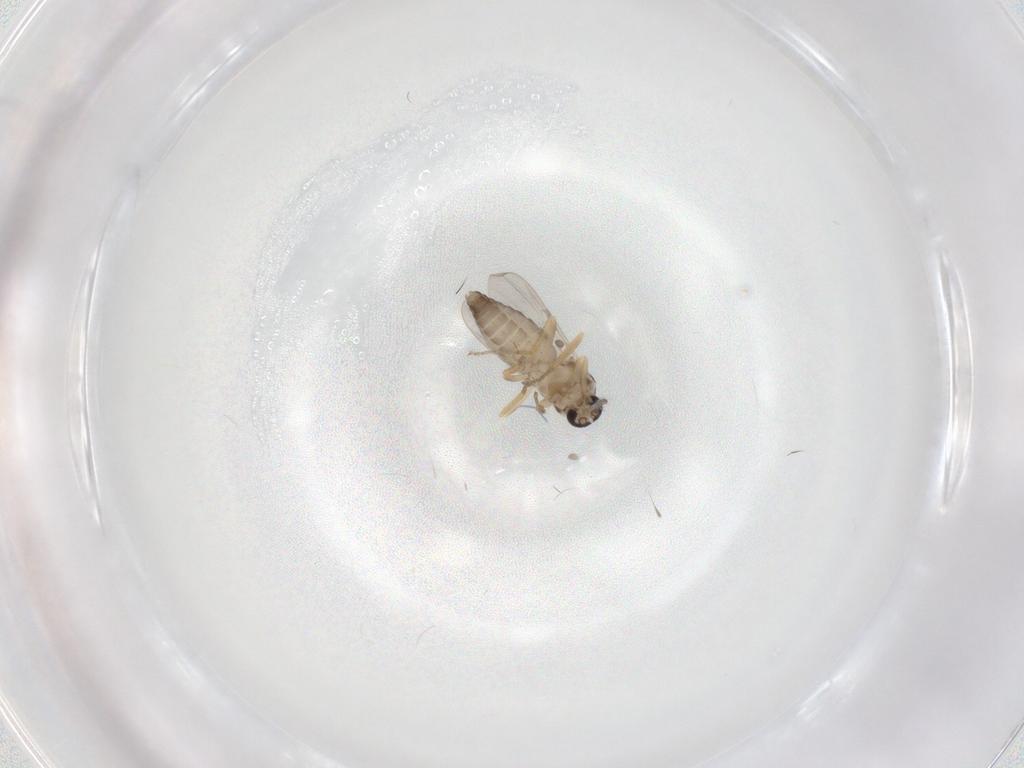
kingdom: Animalia
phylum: Arthropoda
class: Insecta
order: Diptera
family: Ceratopogonidae
